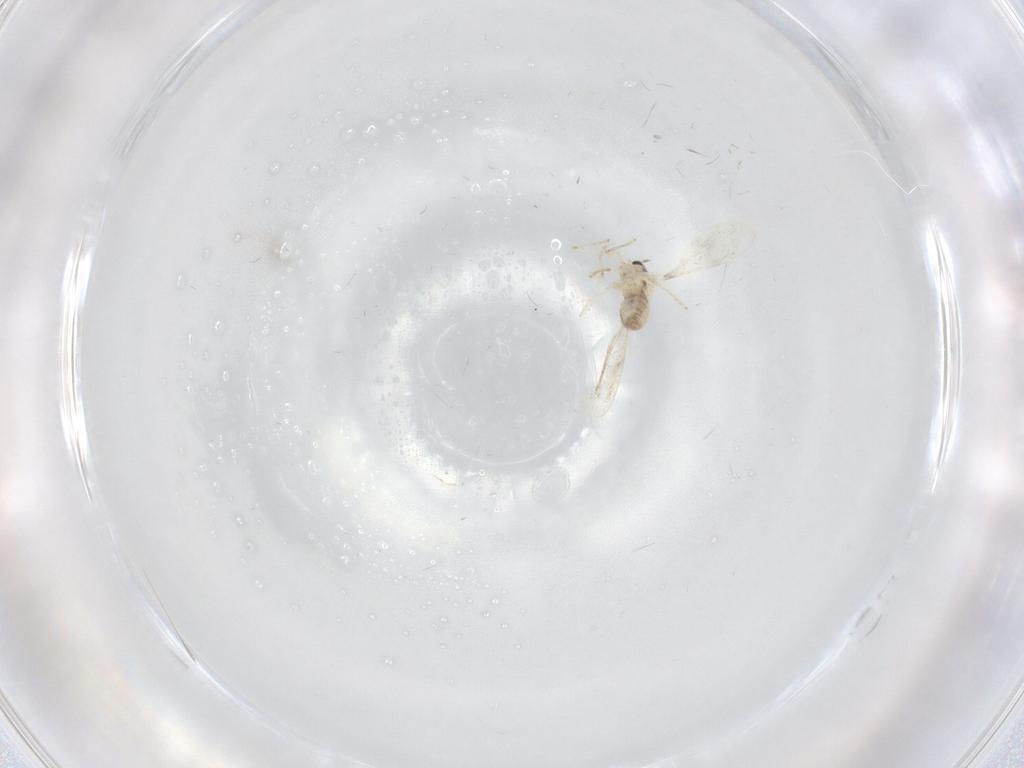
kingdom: Animalia
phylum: Arthropoda
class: Insecta
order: Diptera
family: Cecidomyiidae
